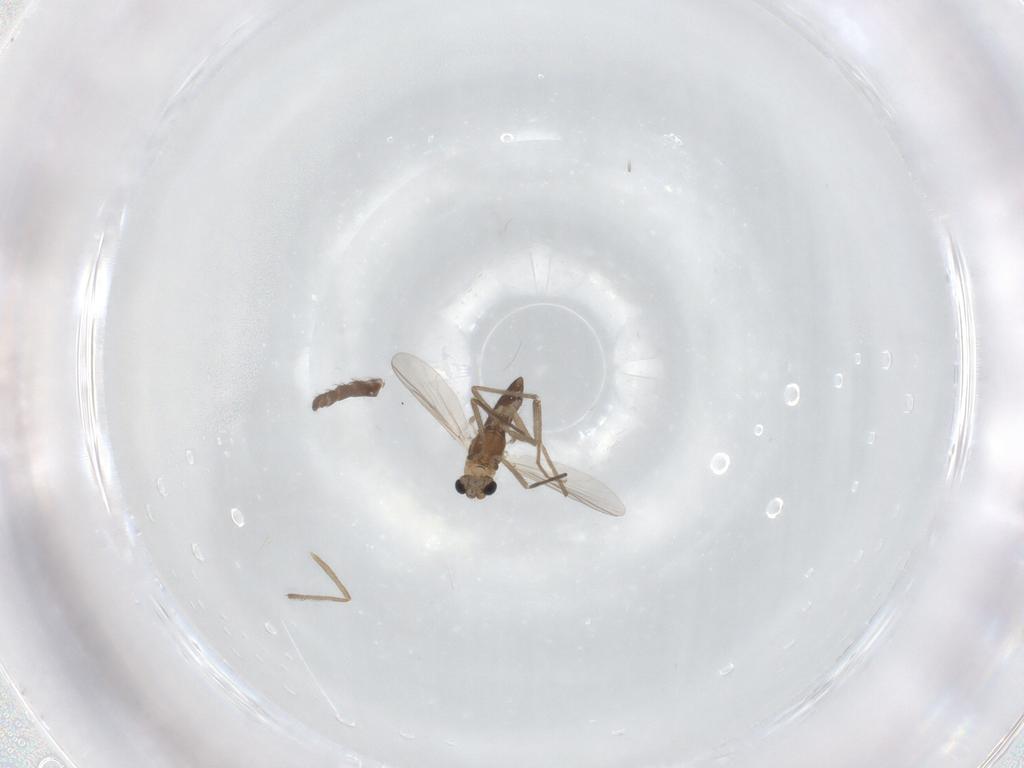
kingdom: Animalia
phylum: Arthropoda
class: Insecta
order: Diptera
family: Chironomidae
